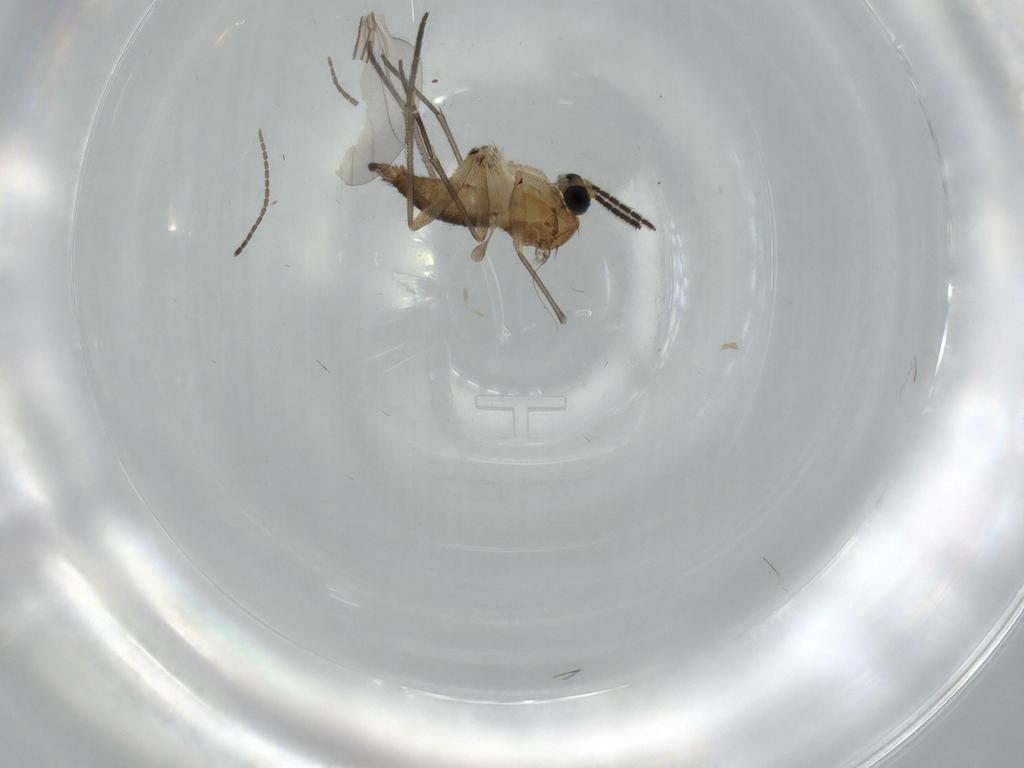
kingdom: Animalia
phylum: Arthropoda
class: Insecta
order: Diptera
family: Sciaridae
